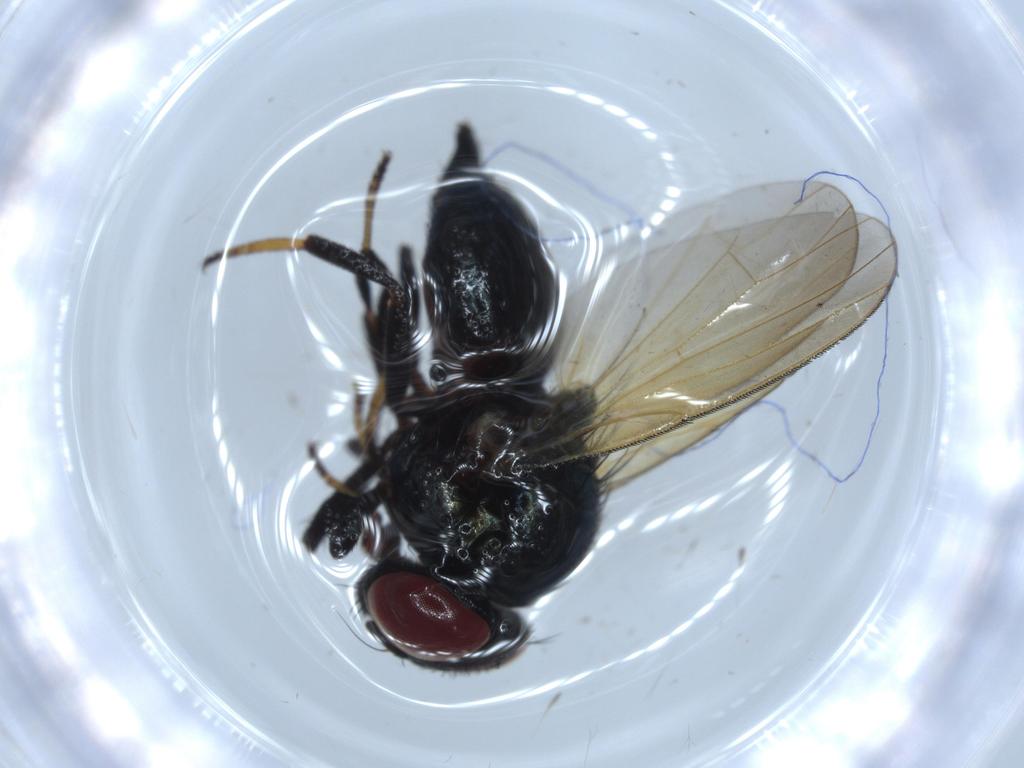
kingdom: Animalia
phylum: Arthropoda
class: Insecta
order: Diptera
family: Lonchaeidae
